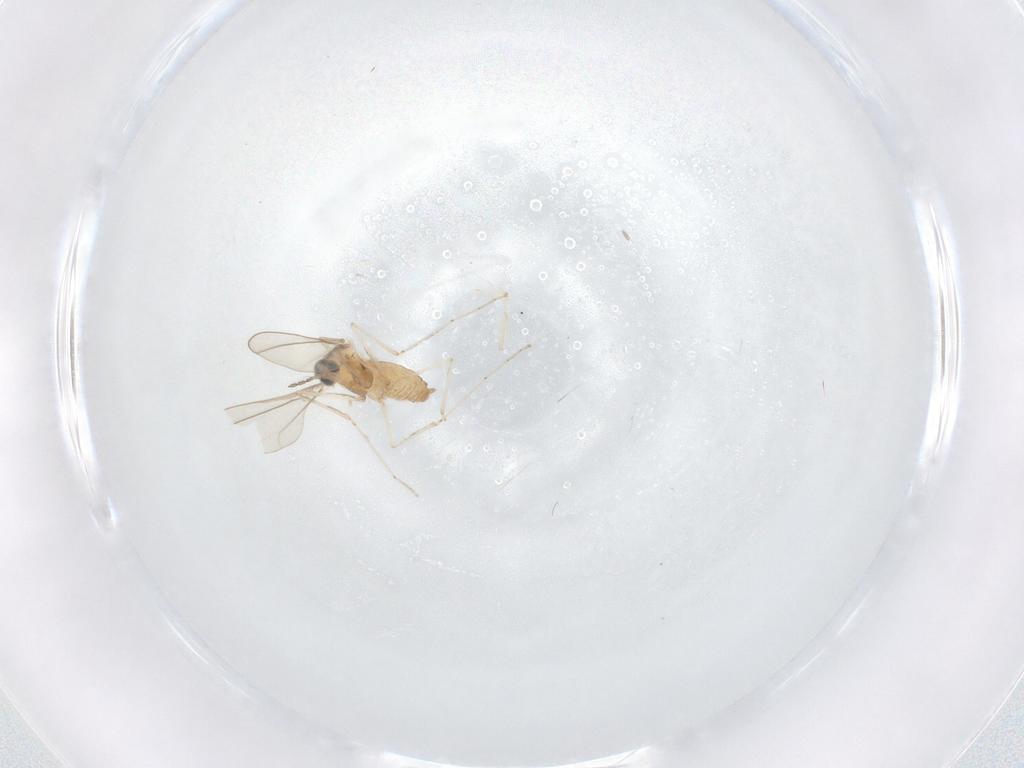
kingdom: Animalia
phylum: Arthropoda
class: Insecta
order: Diptera
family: Cecidomyiidae
